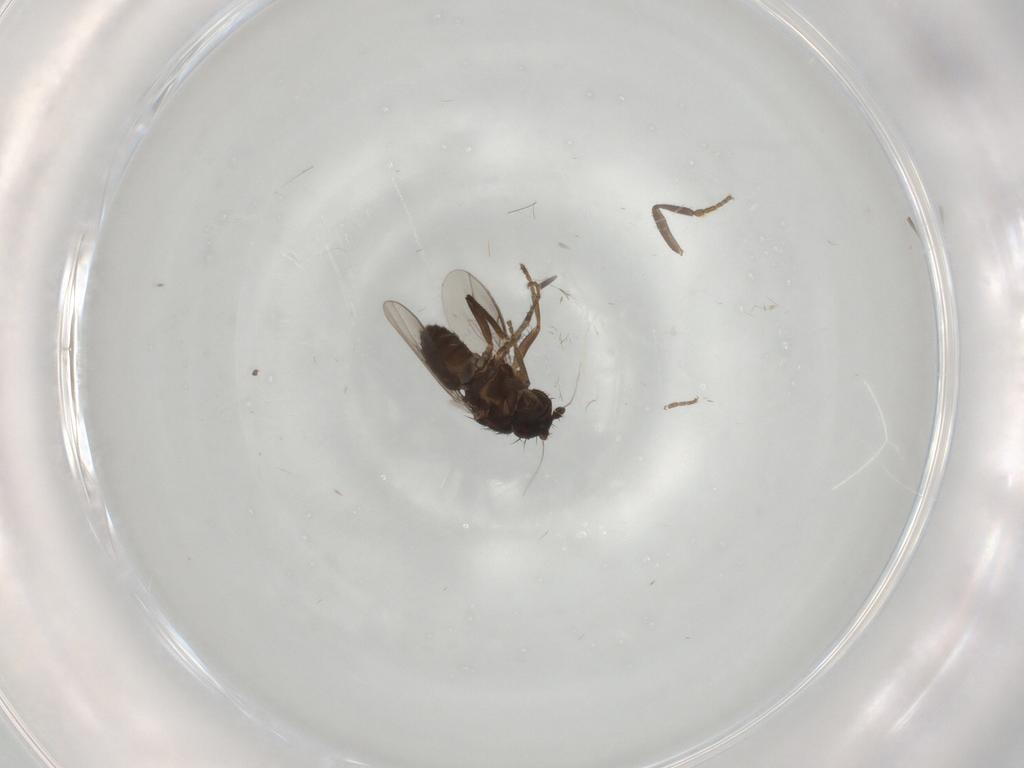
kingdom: Animalia
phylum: Arthropoda
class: Insecta
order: Diptera
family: Sphaeroceridae
